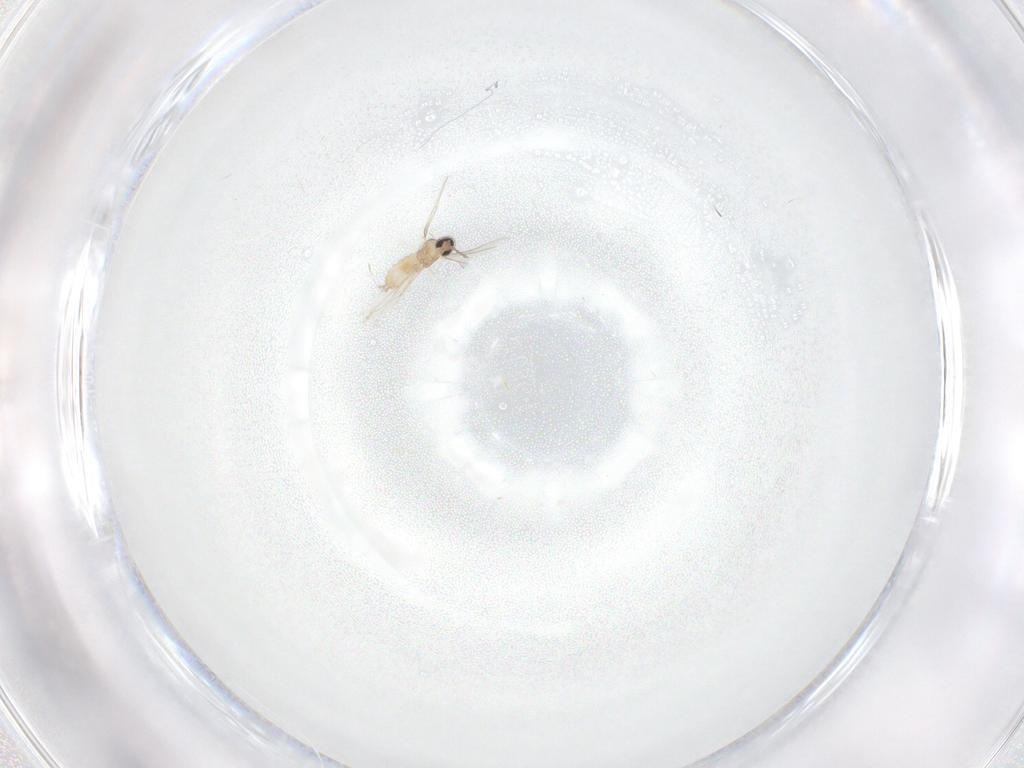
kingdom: Animalia
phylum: Arthropoda
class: Insecta
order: Diptera
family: Cecidomyiidae
